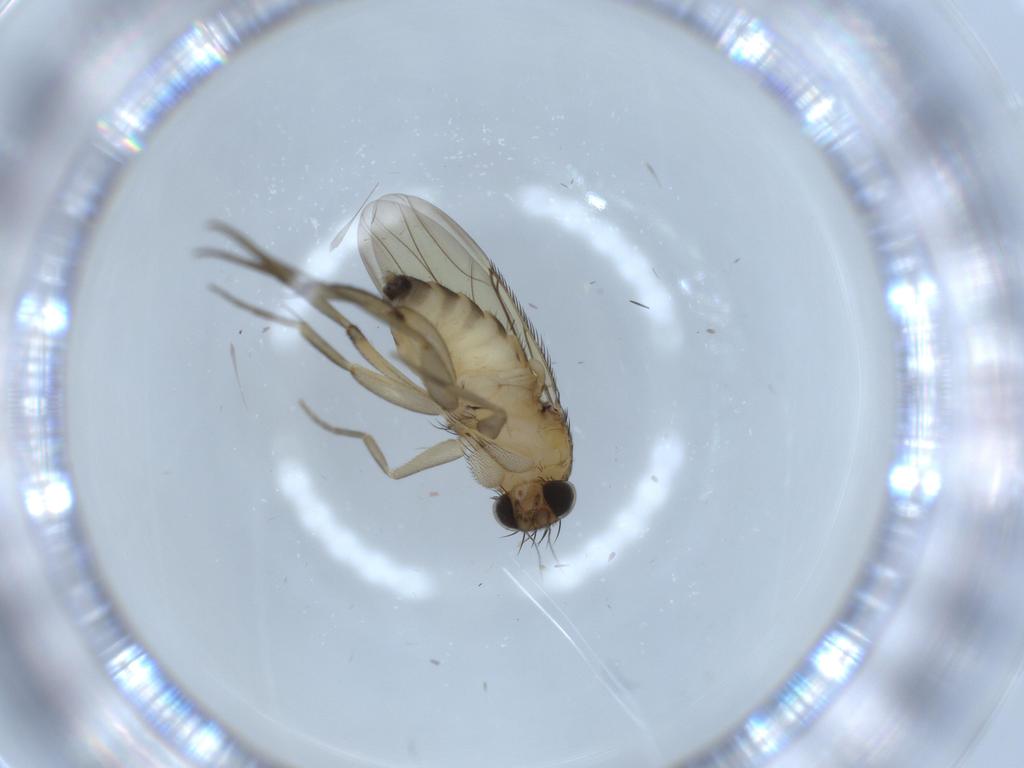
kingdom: Animalia
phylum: Arthropoda
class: Insecta
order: Diptera
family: Phoridae
